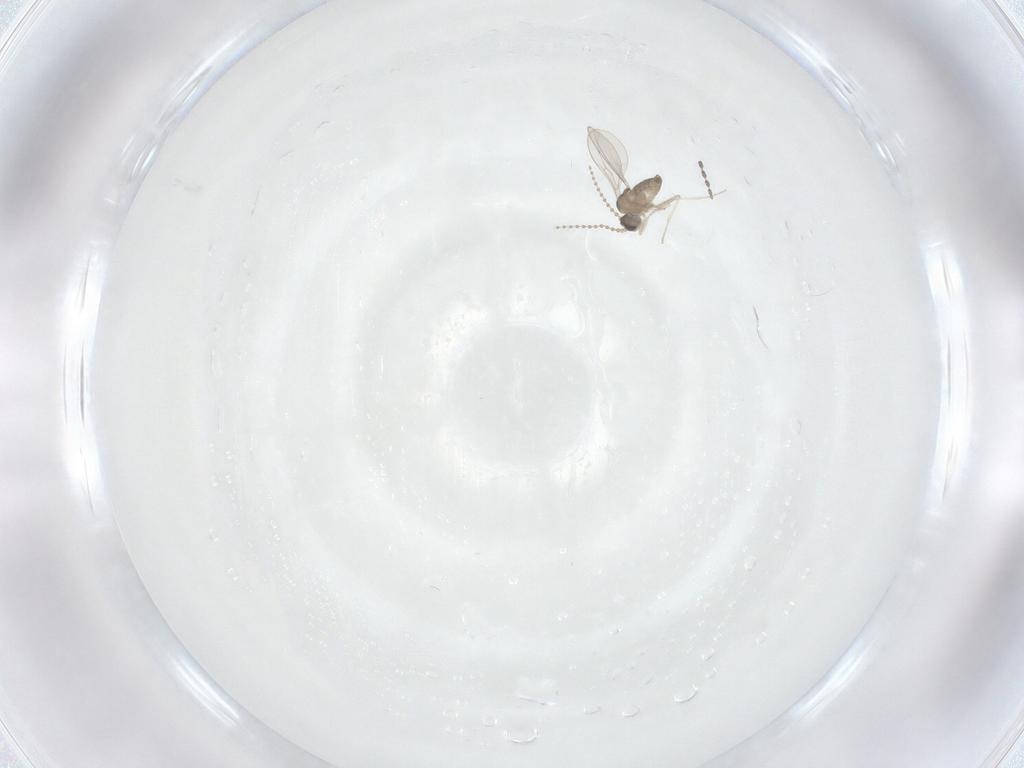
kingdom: Animalia
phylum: Arthropoda
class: Insecta
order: Diptera
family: Cecidomyiidae
